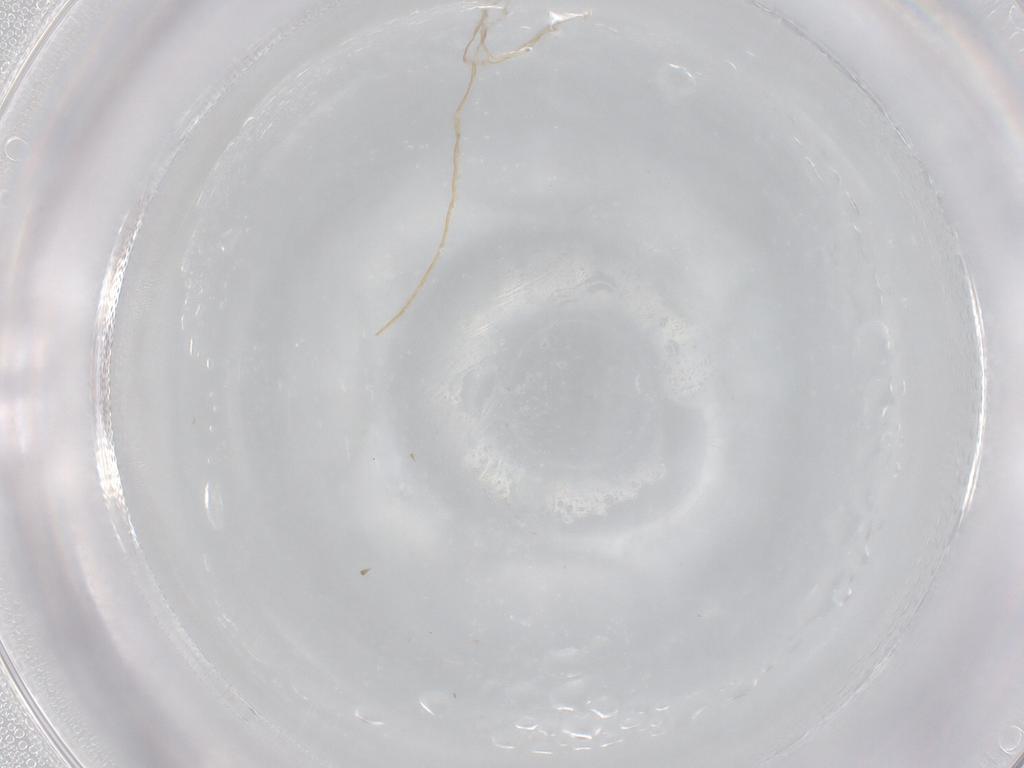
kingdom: Animalia
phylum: Arthropoda
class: Insecta
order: Diptera
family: Limoniidae
